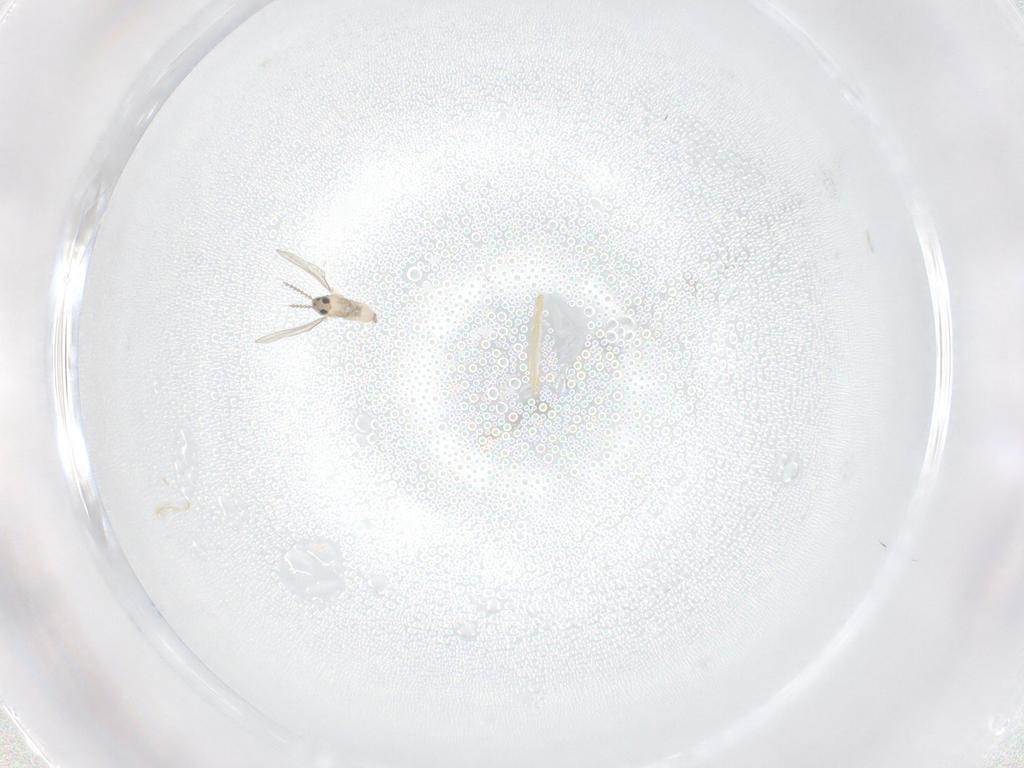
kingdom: Animalia
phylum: Arthropoda
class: Insecta
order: Diptera
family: Cecidomyiidae
